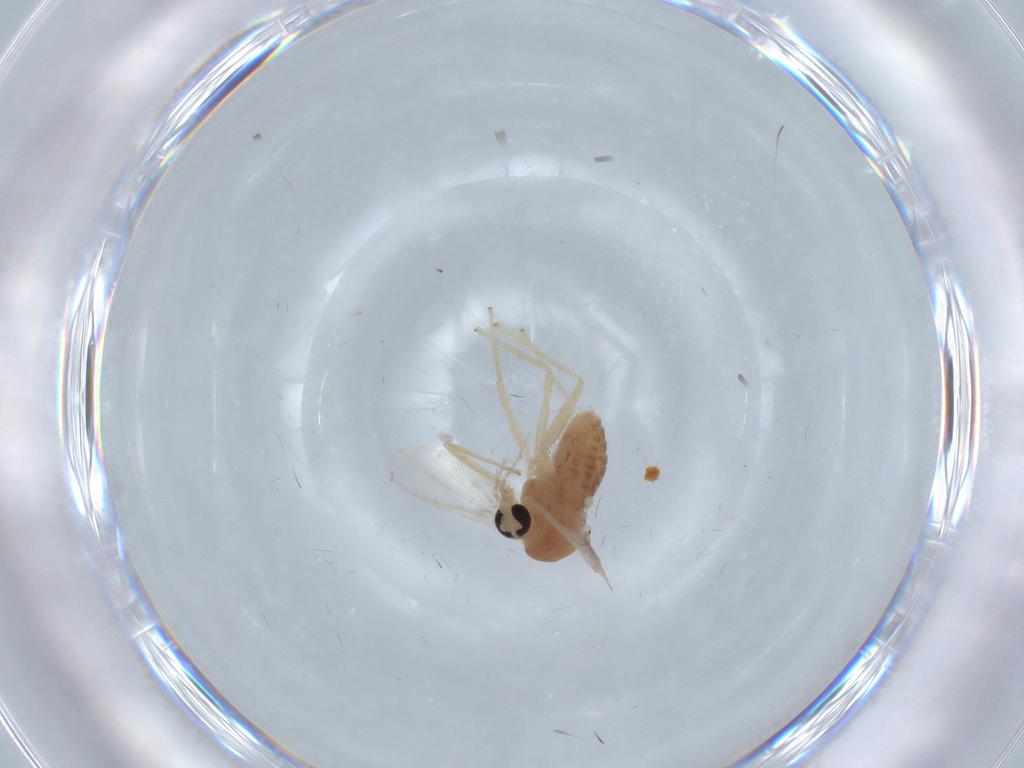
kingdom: Animalia
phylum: Arthropoda
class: Insecta
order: Diptera
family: Chironomidae
